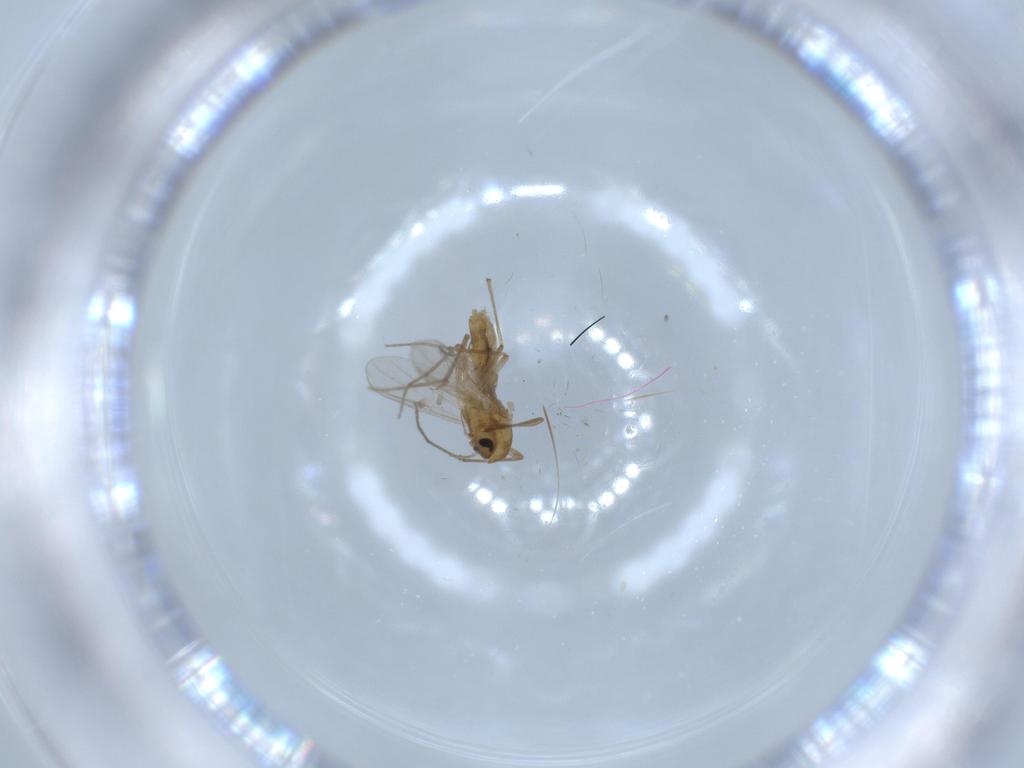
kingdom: Animalia
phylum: Arthropoda
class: Insecta
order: Diptera
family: Chironomidae
